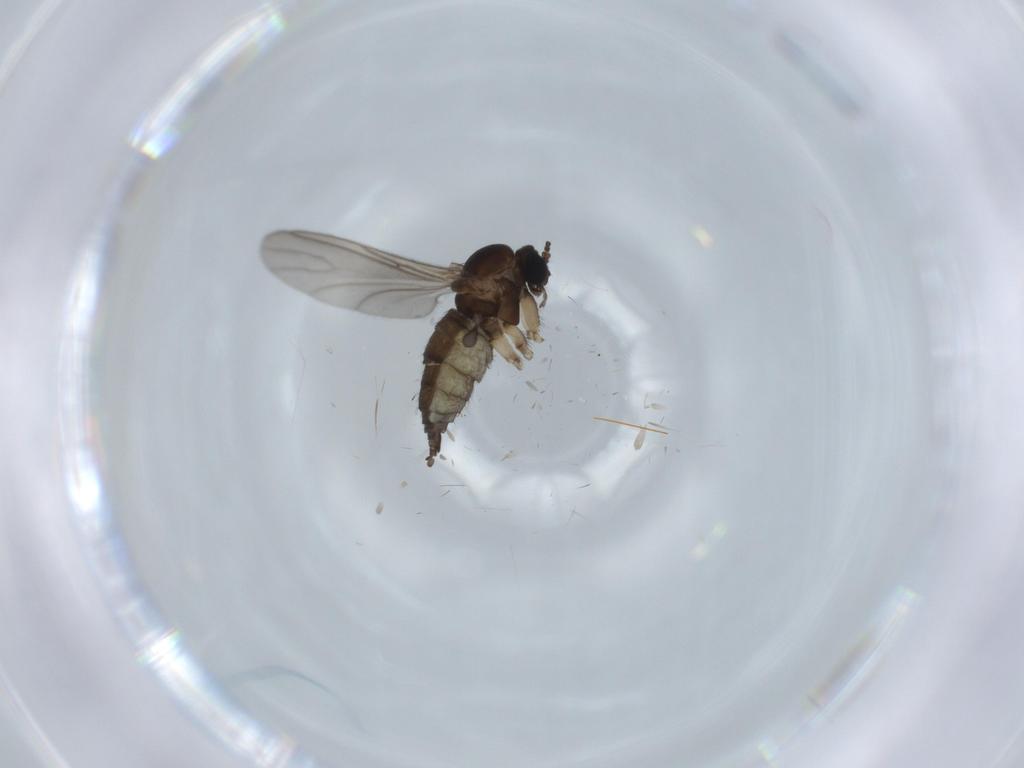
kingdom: Animalia
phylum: Arthropoda
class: Insecta
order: Diptera
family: Sciaridae
